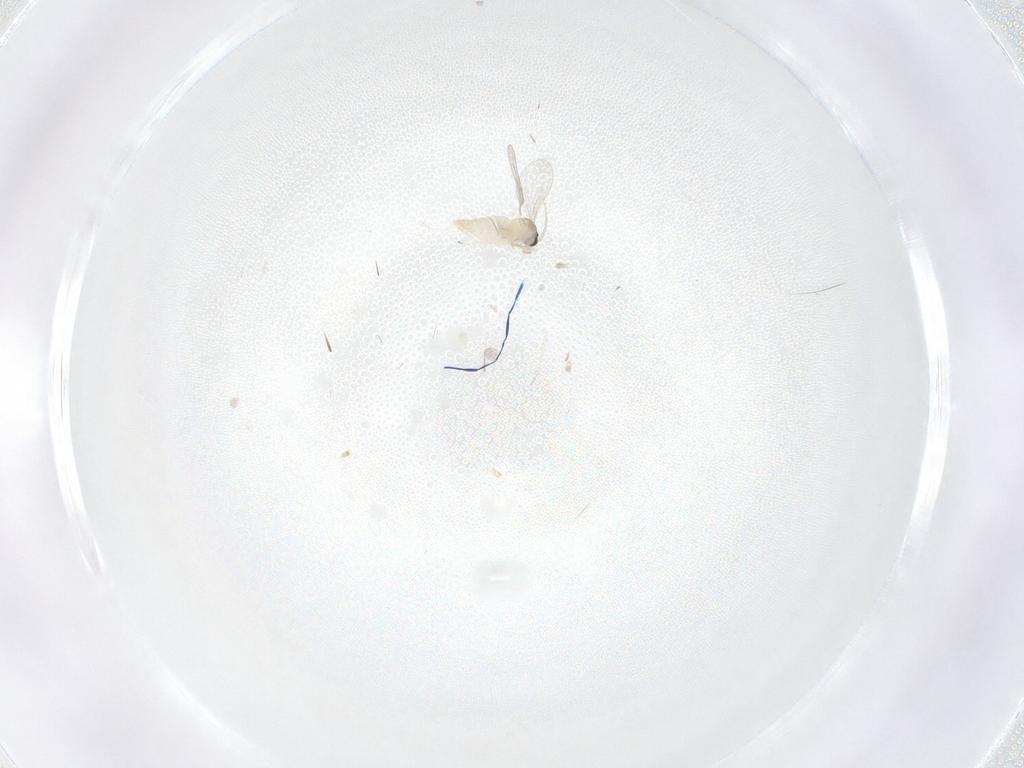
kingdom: Animalia
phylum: Arthropoda
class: Insecta
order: Diptera
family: Cecidomyiidae
